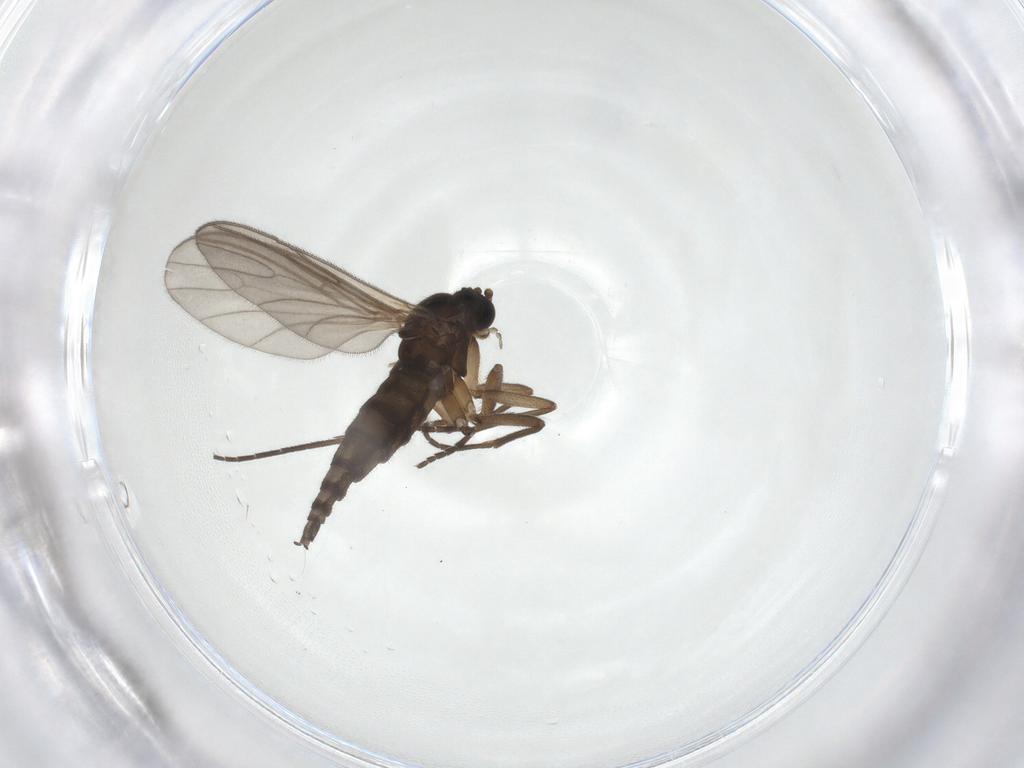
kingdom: Animalia
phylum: Arthropoda
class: Insecta
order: Diptera
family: Sciaridae
